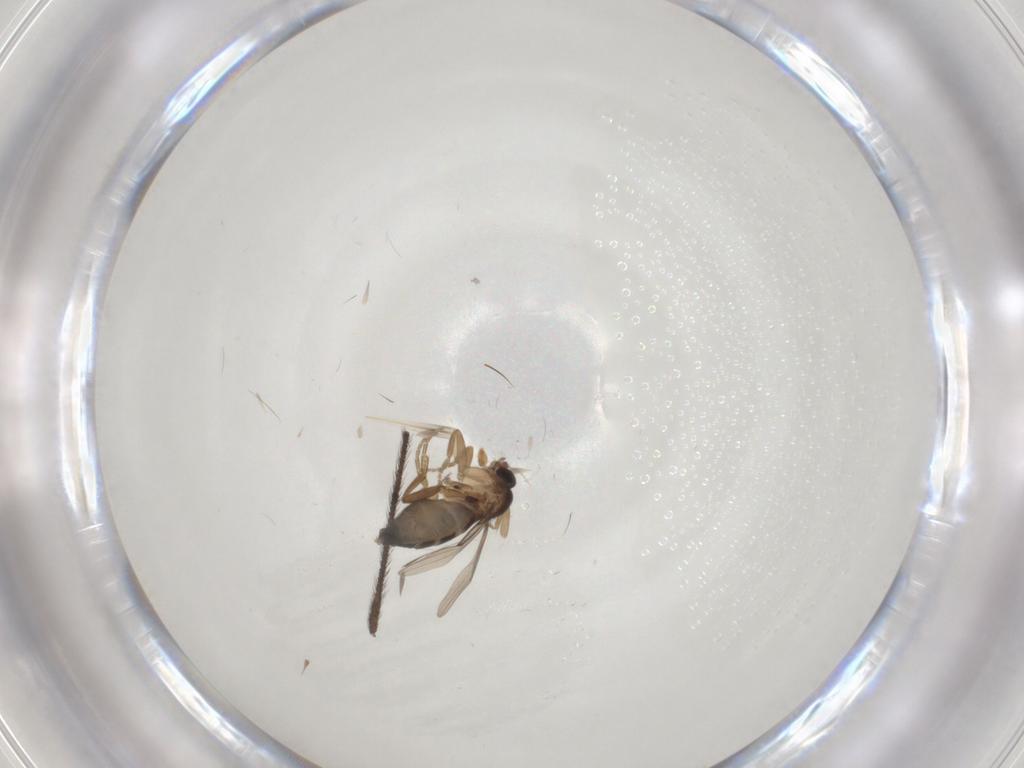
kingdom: Animalia
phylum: Arthropoda
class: Insecta
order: Diptera
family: Limoniidae
